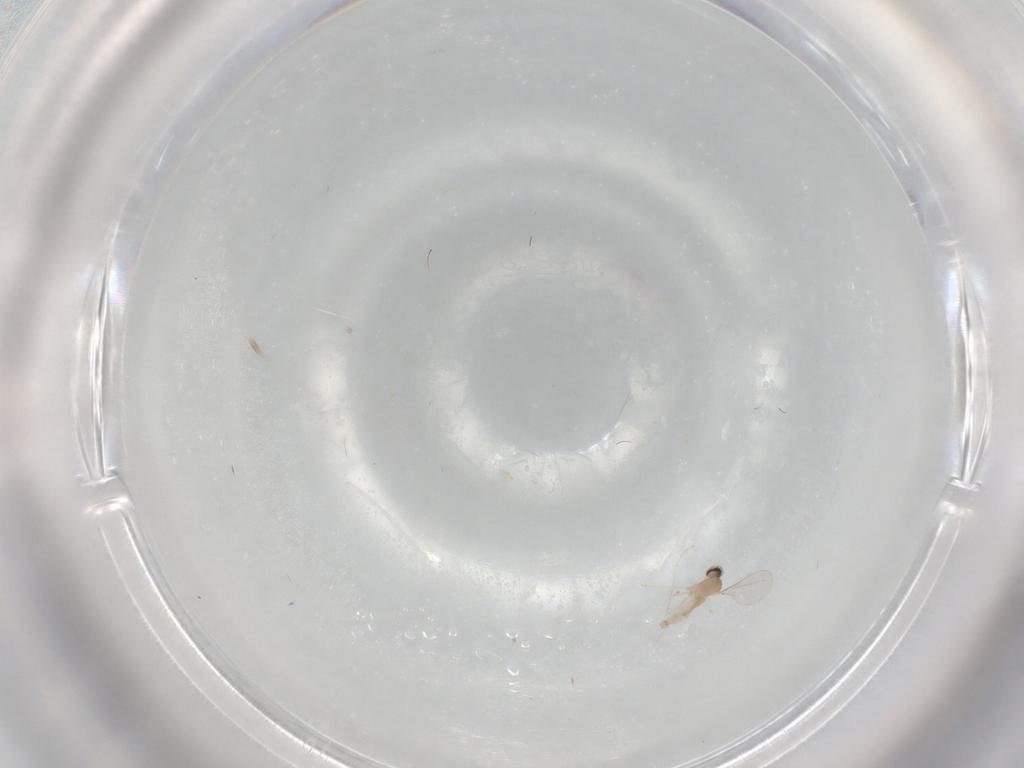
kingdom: Animalia
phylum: Arthropoda
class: Insecta
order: Diptera
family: Cecidomyiidae
